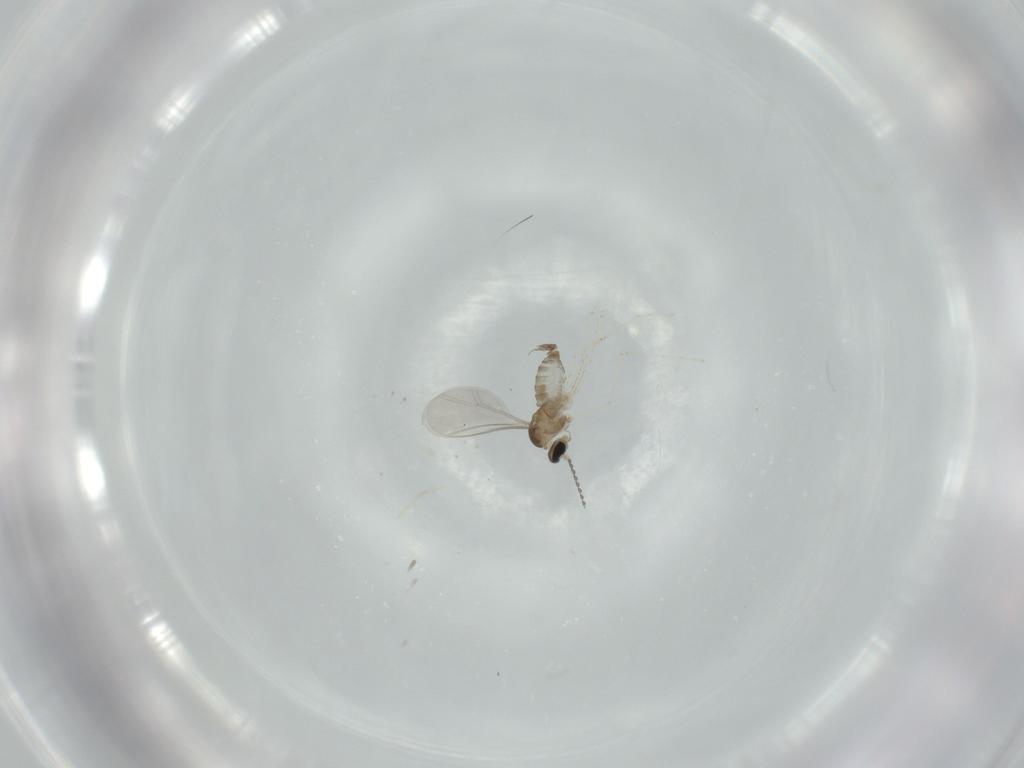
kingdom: Animalia
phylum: Arthropoda
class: Insecta
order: Diptera
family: Cecidomyiidae
